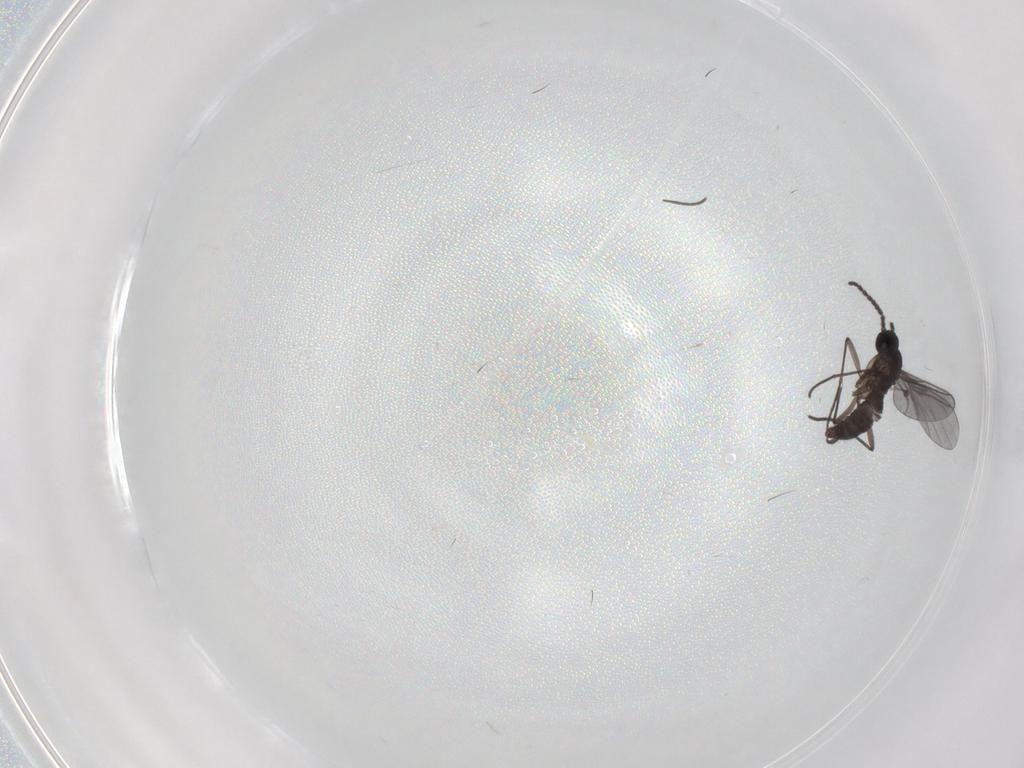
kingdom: Animalia
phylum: Arthropoda
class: Insecta
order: Diptera
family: Limoniidae
